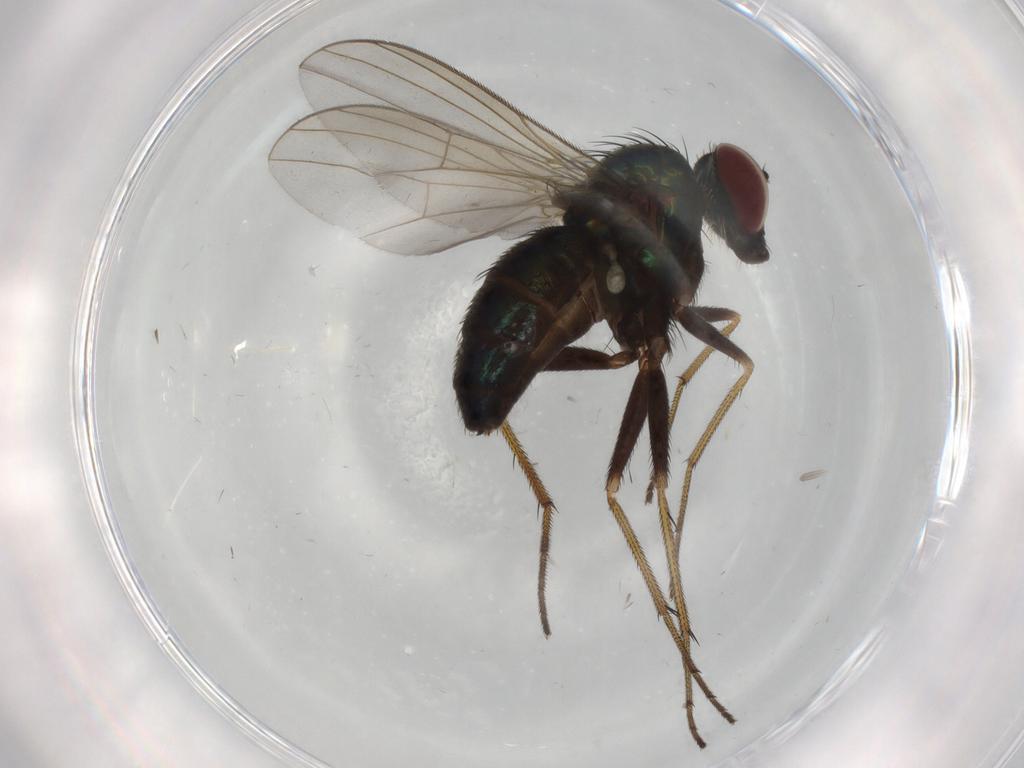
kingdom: Animalia
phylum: Arthropoda
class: Insecta
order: Diptera
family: Dolichopodidae
